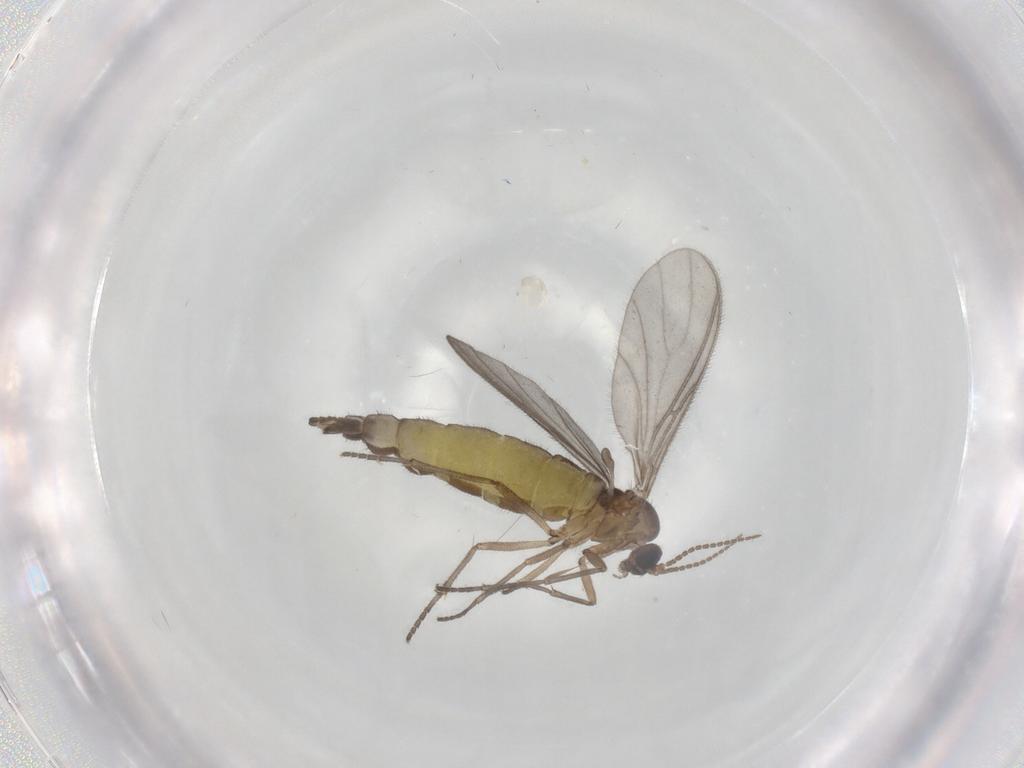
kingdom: Animalia
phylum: Arthropoda
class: Insecta
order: Diptera
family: Sciaridae
